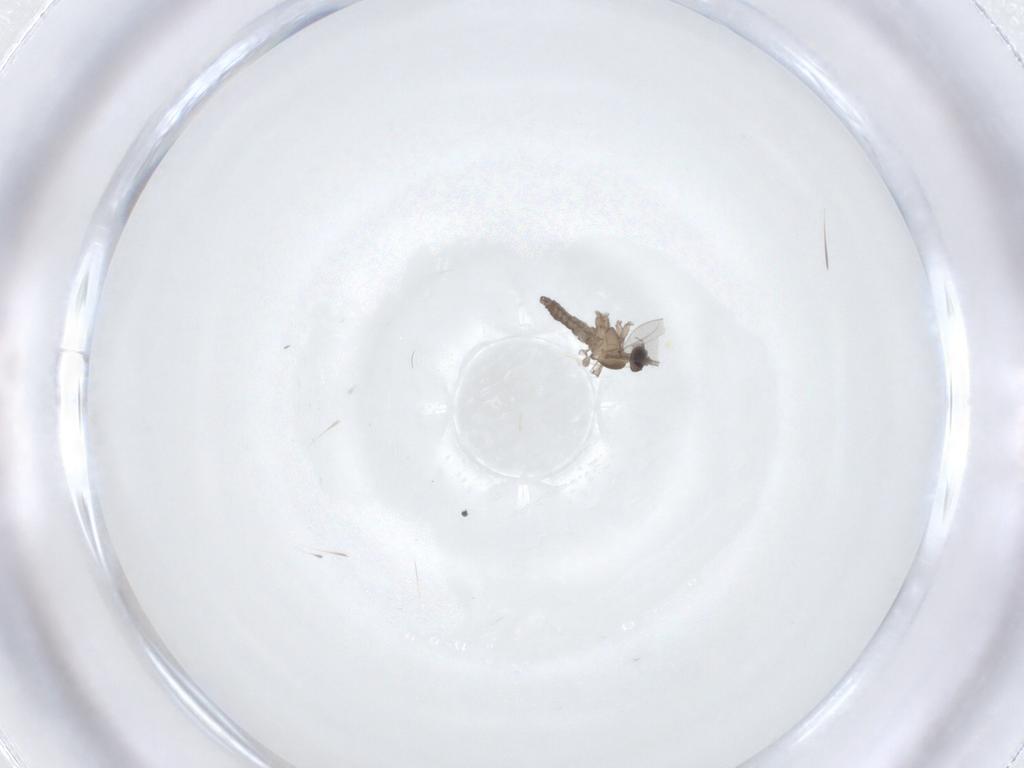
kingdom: Animalia
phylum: Arthropoda
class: Insecta
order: Diptera
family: Cecidomyiidae
